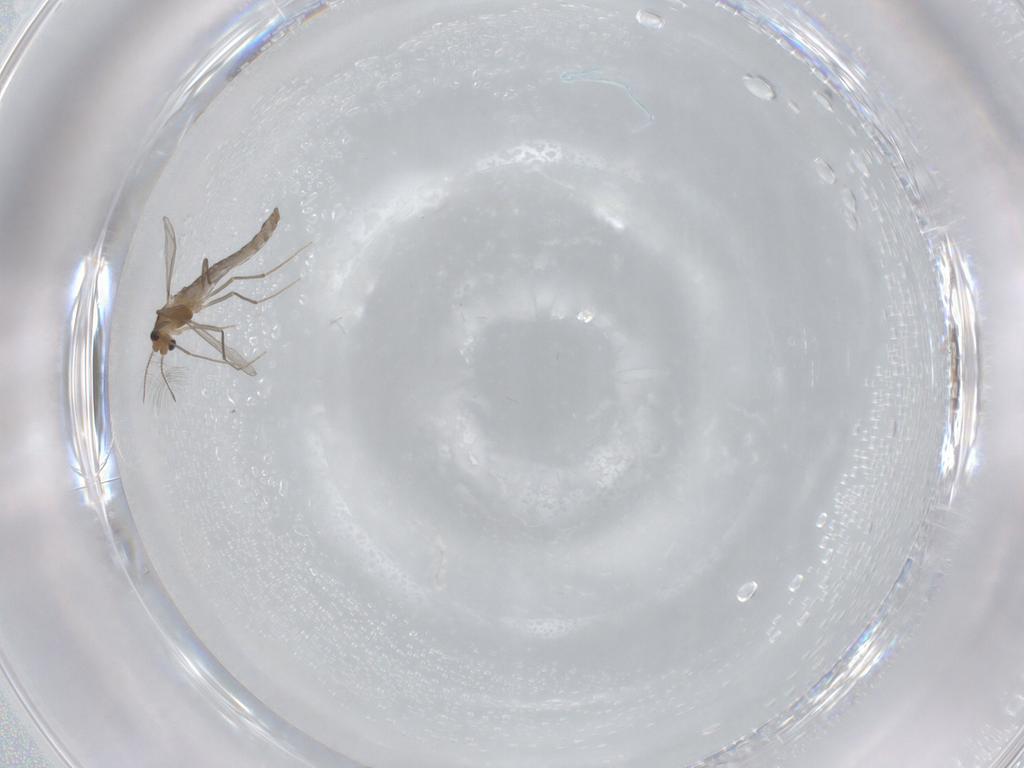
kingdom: Animalia
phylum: Arthropoda
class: Insecta
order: Diptera
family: Chironomidae
